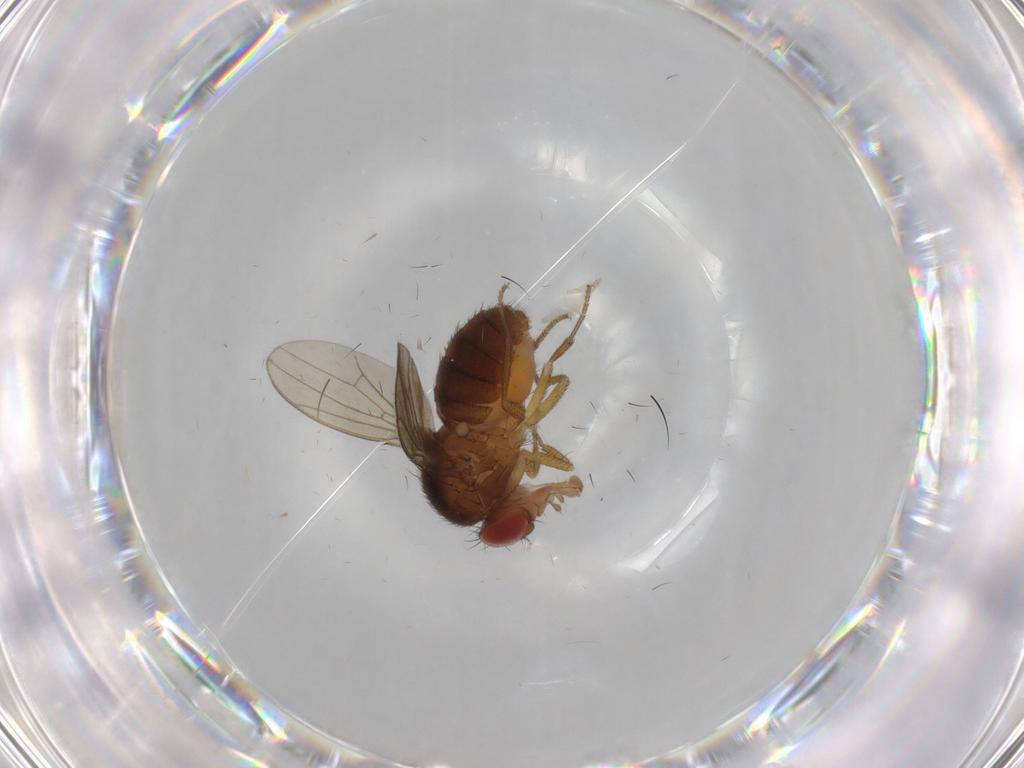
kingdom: Animalia
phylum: Arthropoda
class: Insecta
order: Diptera
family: Drosophilidae
